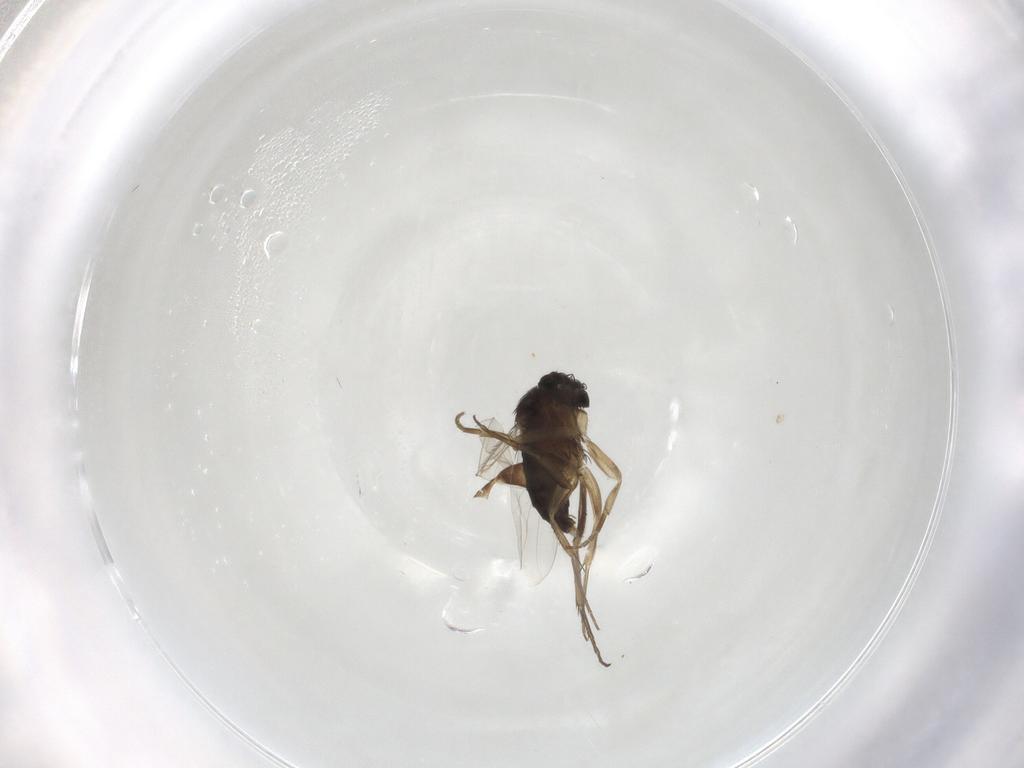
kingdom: Animalia
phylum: Arthropoda
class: Insecta
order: Diptera
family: Phoridae
